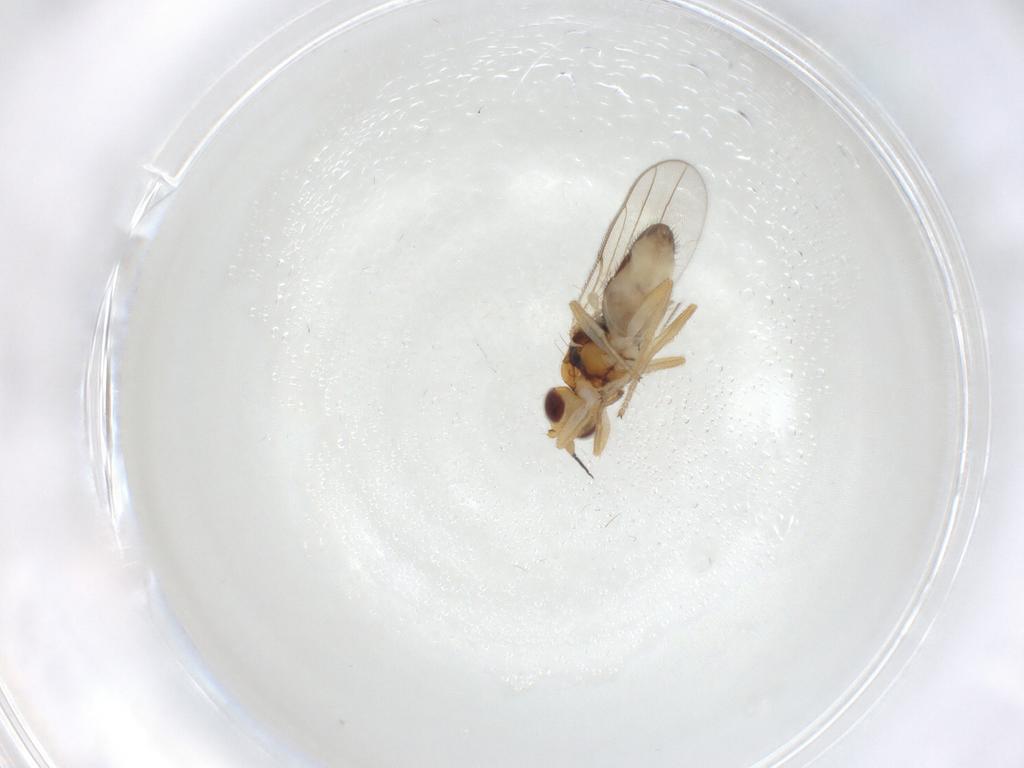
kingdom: Animalia
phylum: Arthropoda
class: Insecta
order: Diptera
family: Chloropidae
